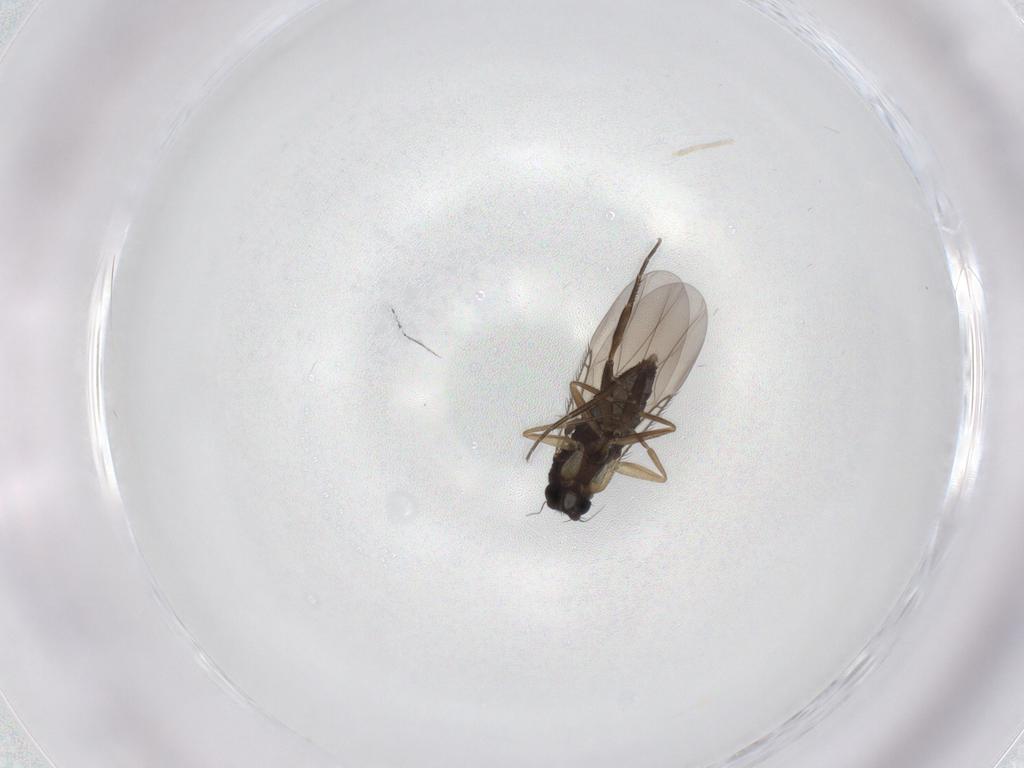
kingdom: Animalia
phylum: Arthropoda
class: Insecta
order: Diptera
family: Phoridae
